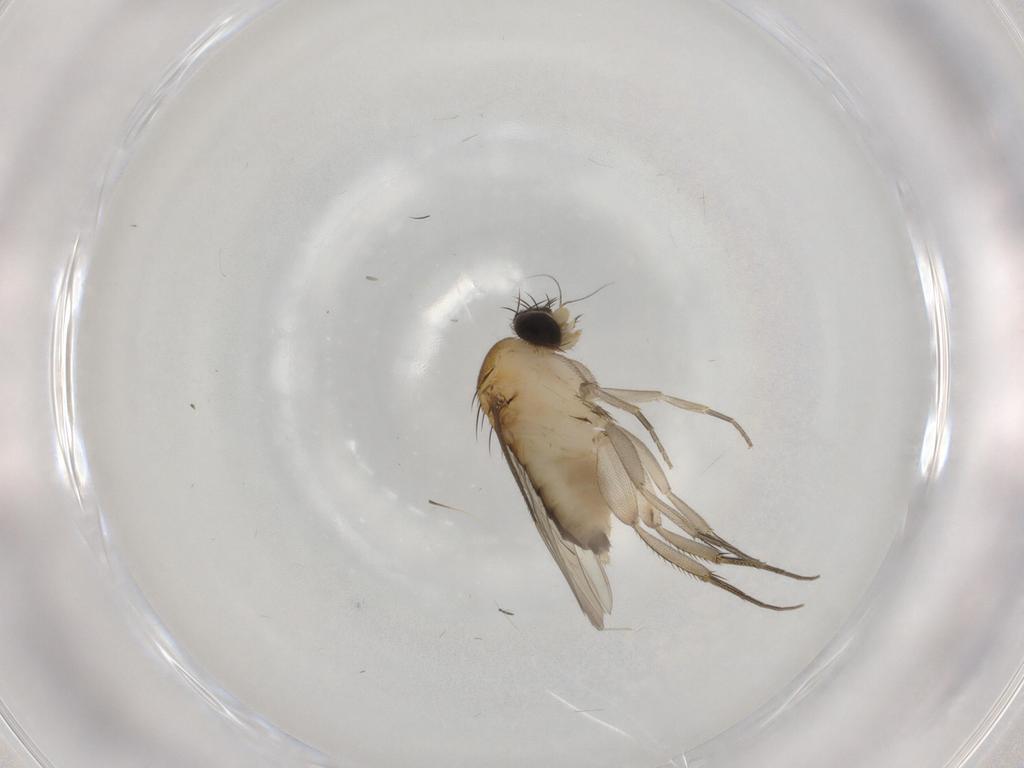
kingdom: Animalia
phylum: Arthropoda
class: Insecta
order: Diptera
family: Phoridae
